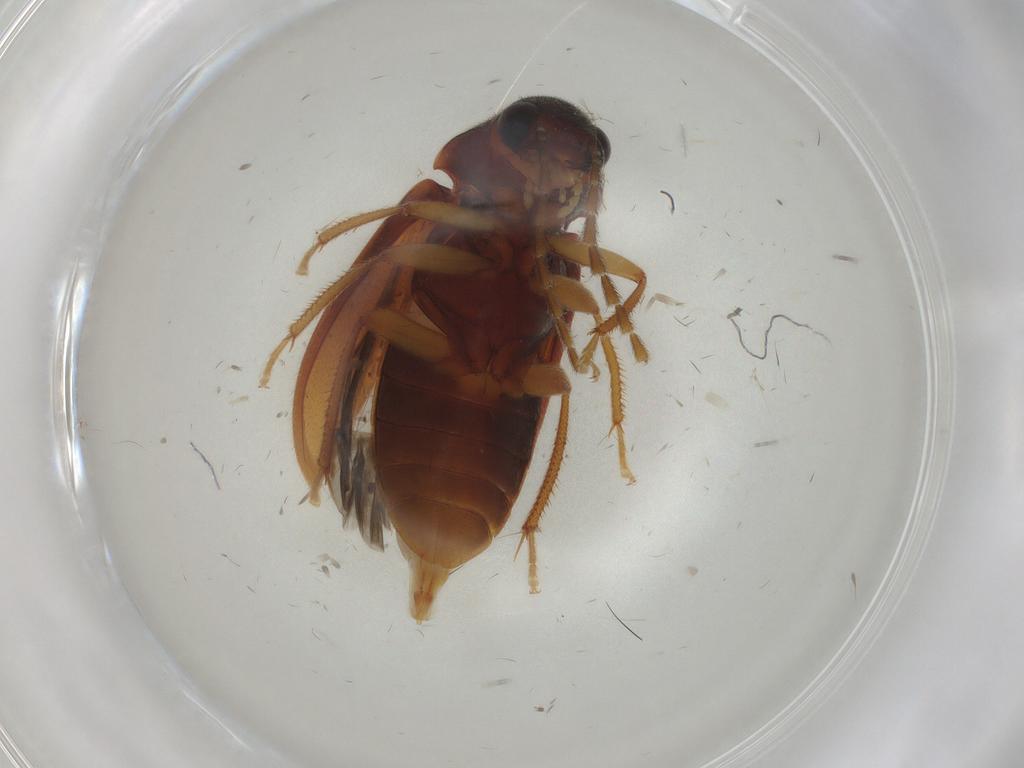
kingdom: Animalia
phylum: Arthropoda
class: Insecta
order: Coleoptera
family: Ptilodactylidae
